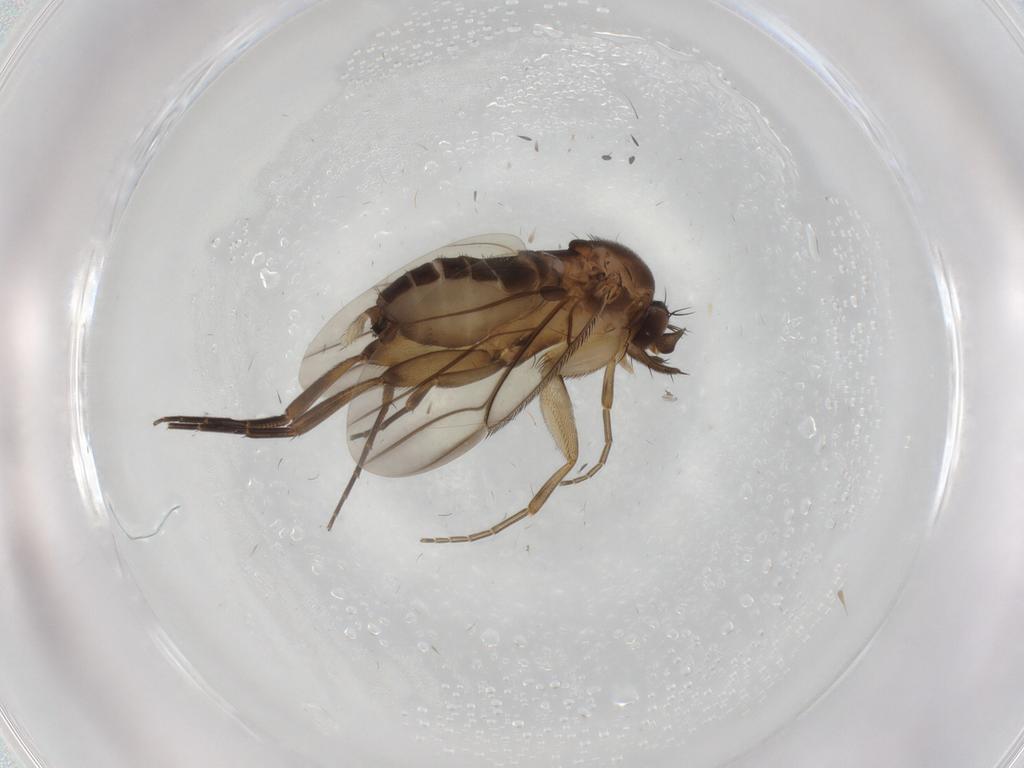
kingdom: Animalia
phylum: Arthropoda
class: Insecta
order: Diptera
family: Phoridae
